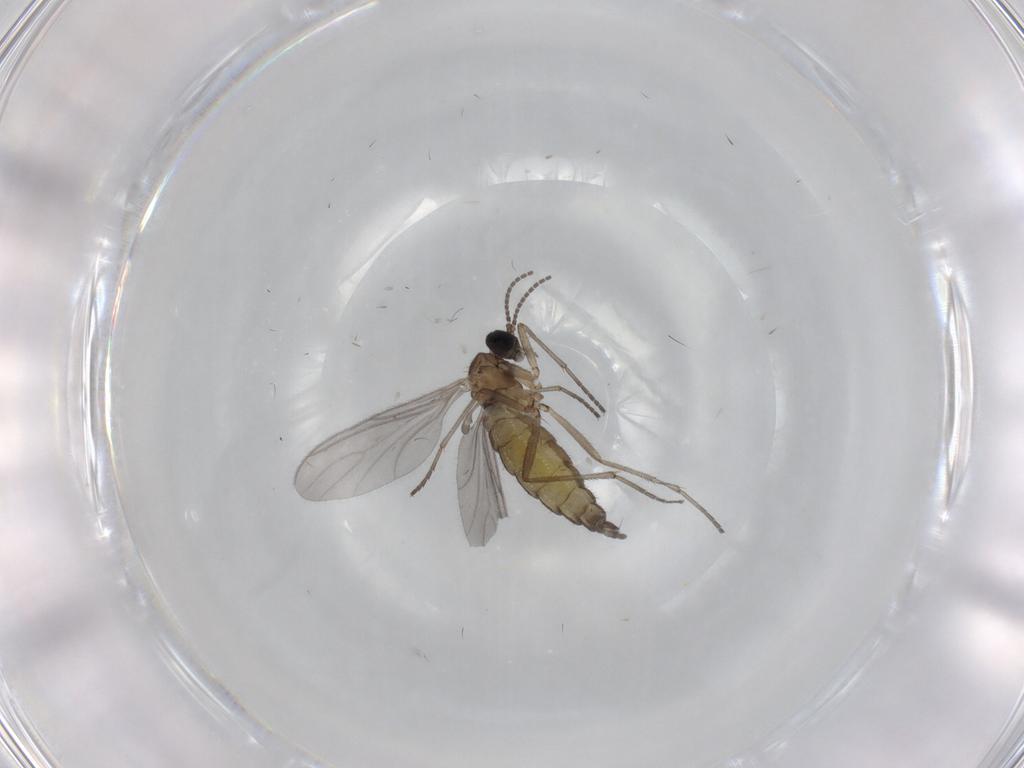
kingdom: Animalia
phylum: Arthropoda
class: Insecta
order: Diptera
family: Sciaridae
